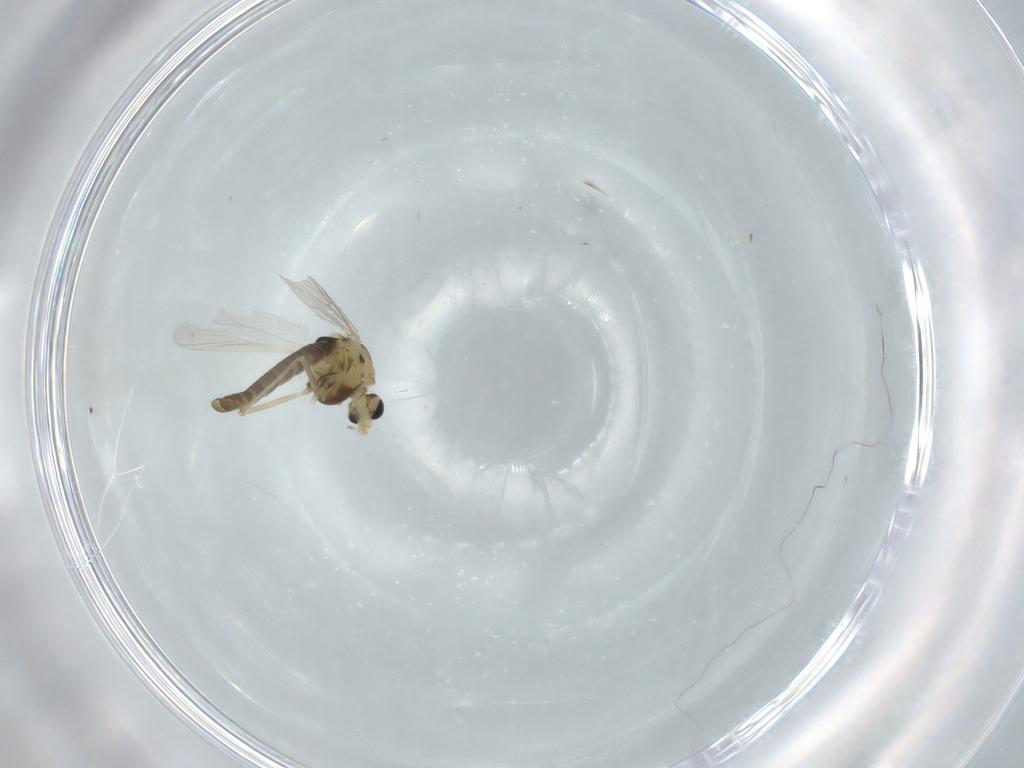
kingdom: Animalia
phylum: Arthropoda
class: Insecta
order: Diptera
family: Chironomidae
